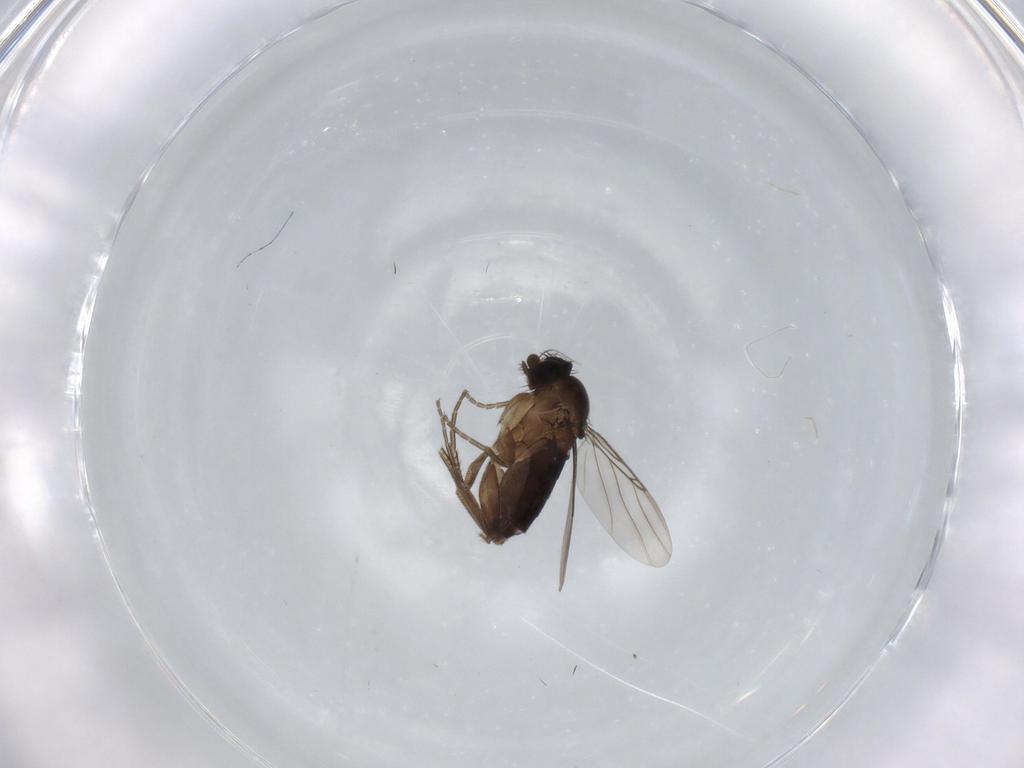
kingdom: Animalia
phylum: Arthropoda
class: Insecta
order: Diptera
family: Phoridae
